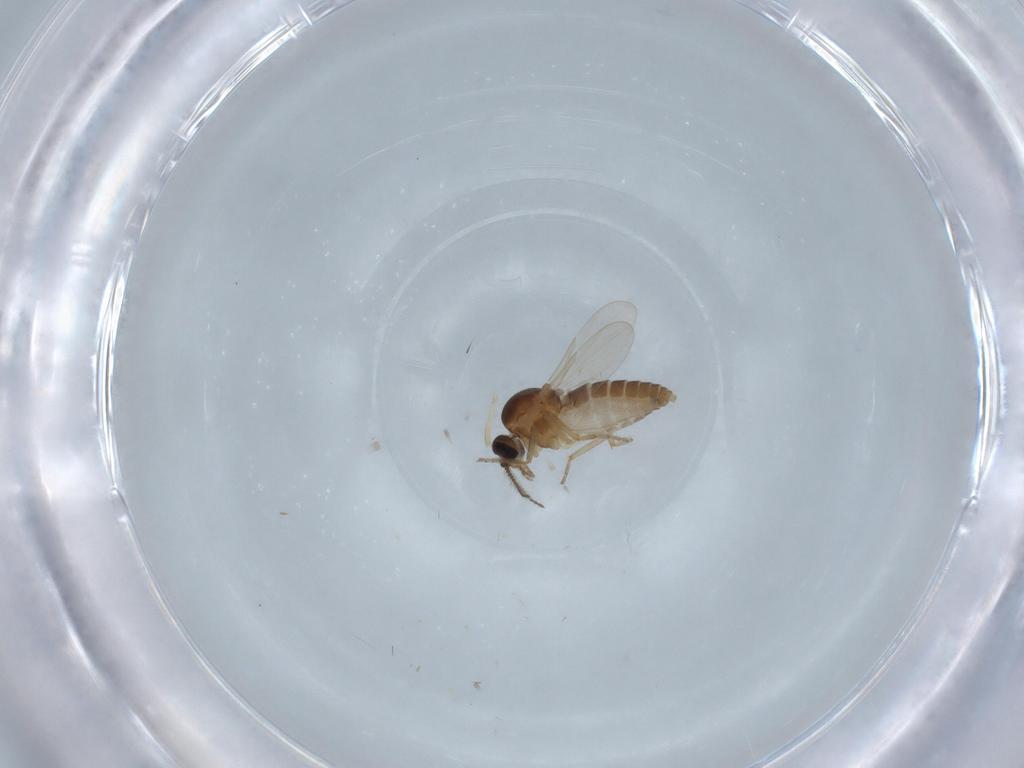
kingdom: Animalia
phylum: Arthropoda
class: Insecta
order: Diptera
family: Ceratopogonidae
